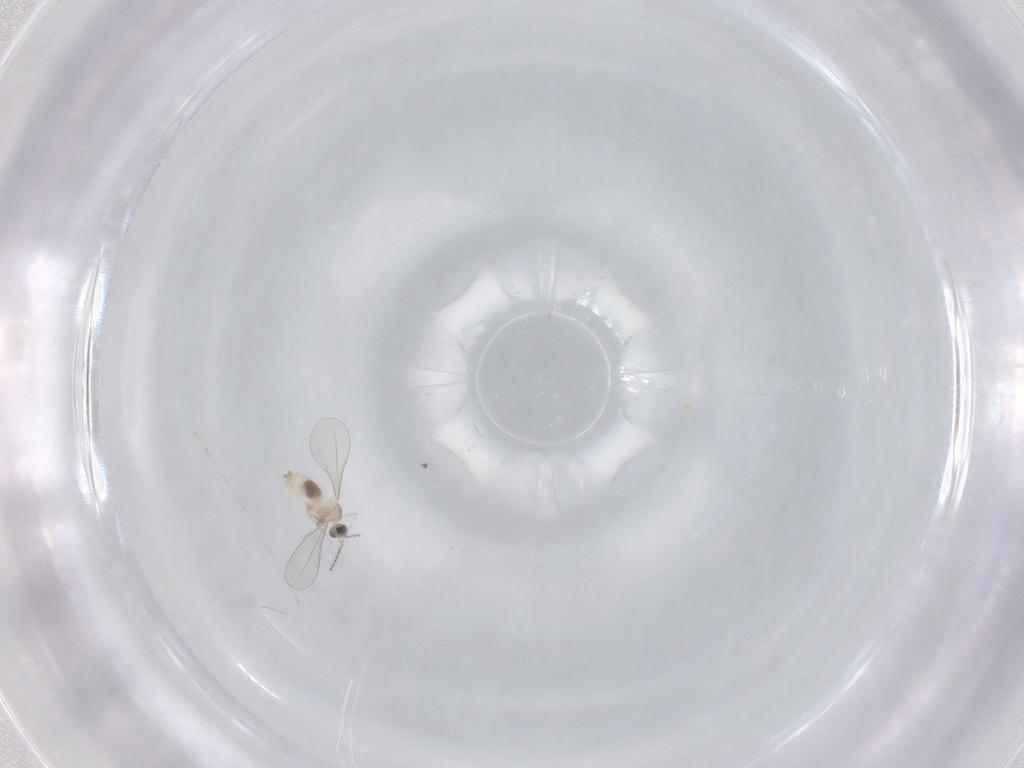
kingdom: Animalia
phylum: Arthropoda
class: Insecta
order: Diptera
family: Cecidomyiidae
